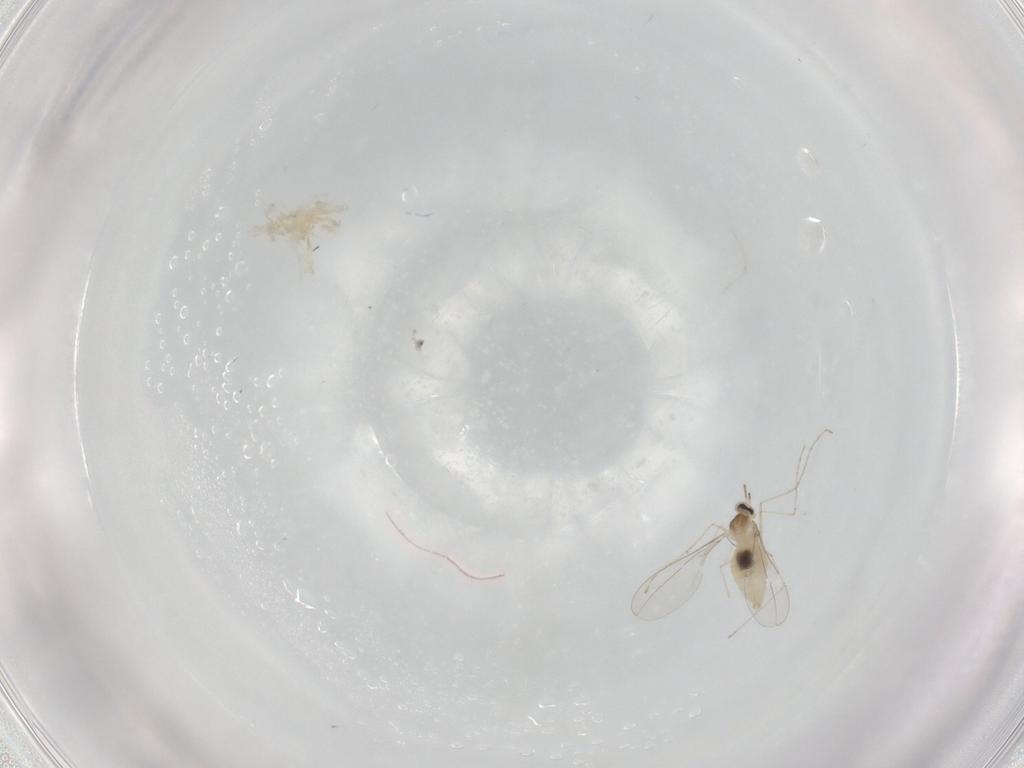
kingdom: Animalia
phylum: Arthropoda
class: Insecta
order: Diptera
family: Cecidomyiidae
